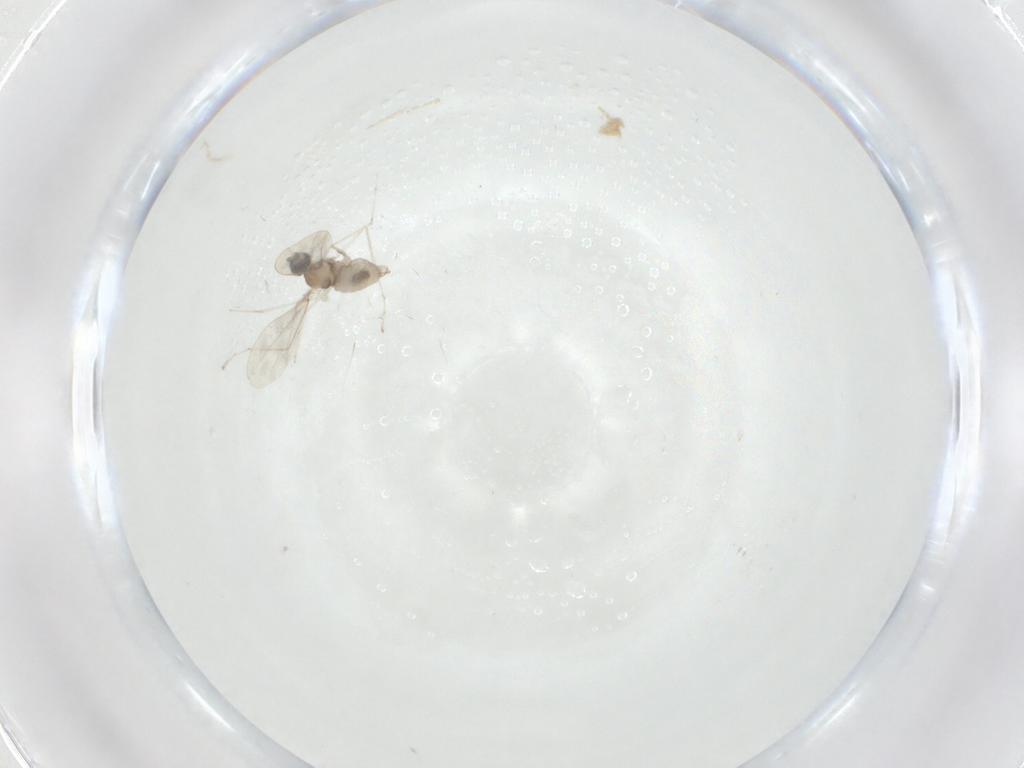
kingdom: Animalia
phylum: Arthropoda
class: Insecta
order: Diptera
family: Cecidomyiidae
